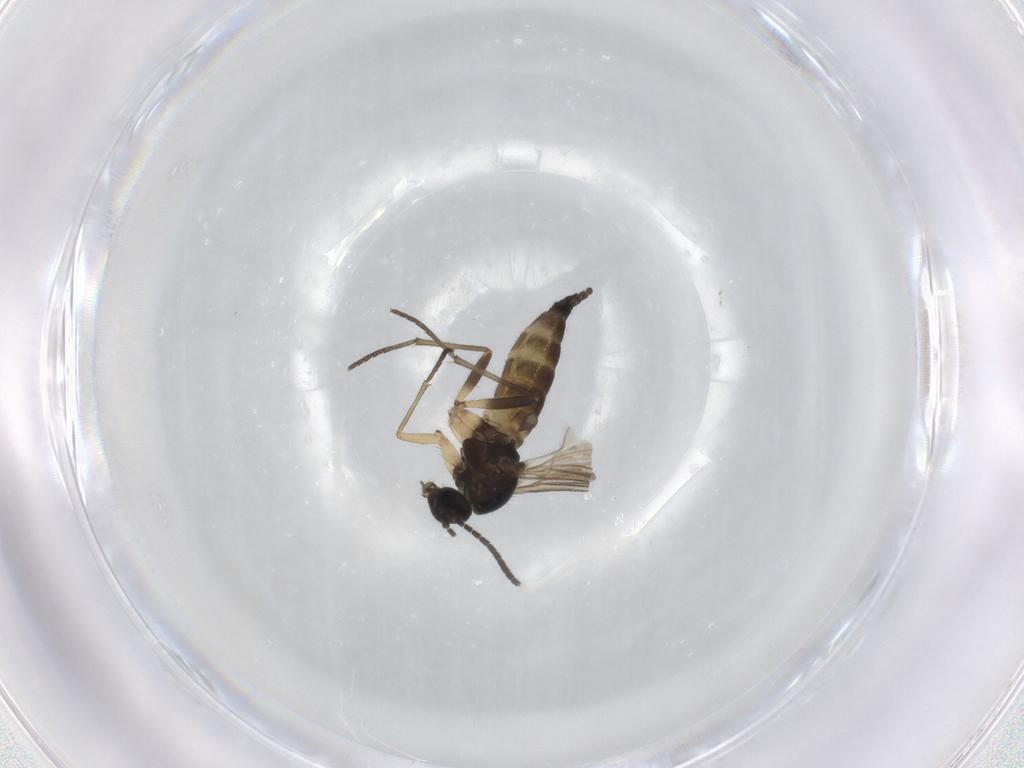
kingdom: Animalia
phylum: Arthropoda
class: Insecta
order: Diptera
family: Sciaridae
